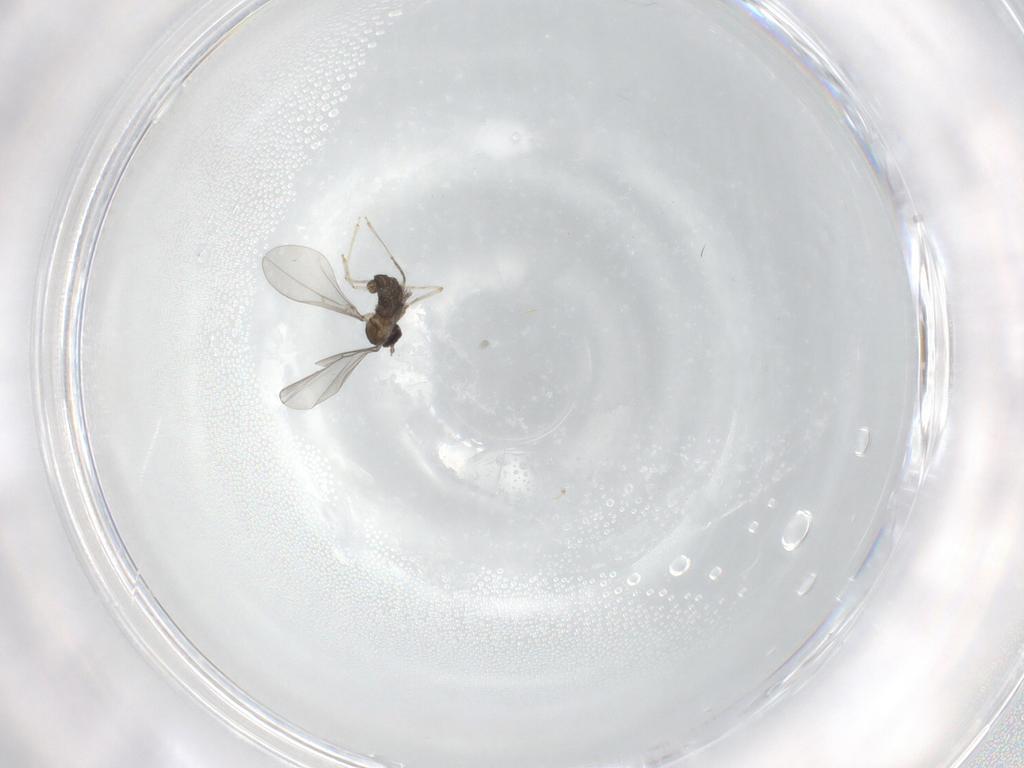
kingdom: Animalia
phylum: Arthropoda
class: Insecta
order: Diptera
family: Cecidomyiidae
